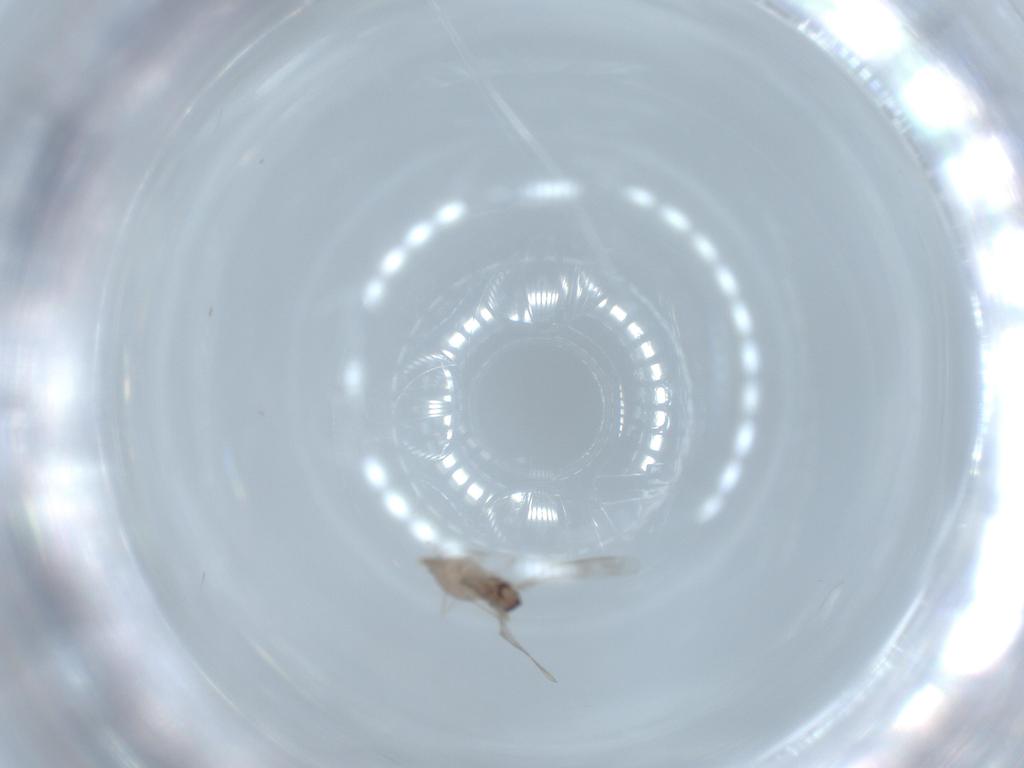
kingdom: Animalia
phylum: Arthropoda
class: Insecta
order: Diptera
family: Cecidomyiidae
